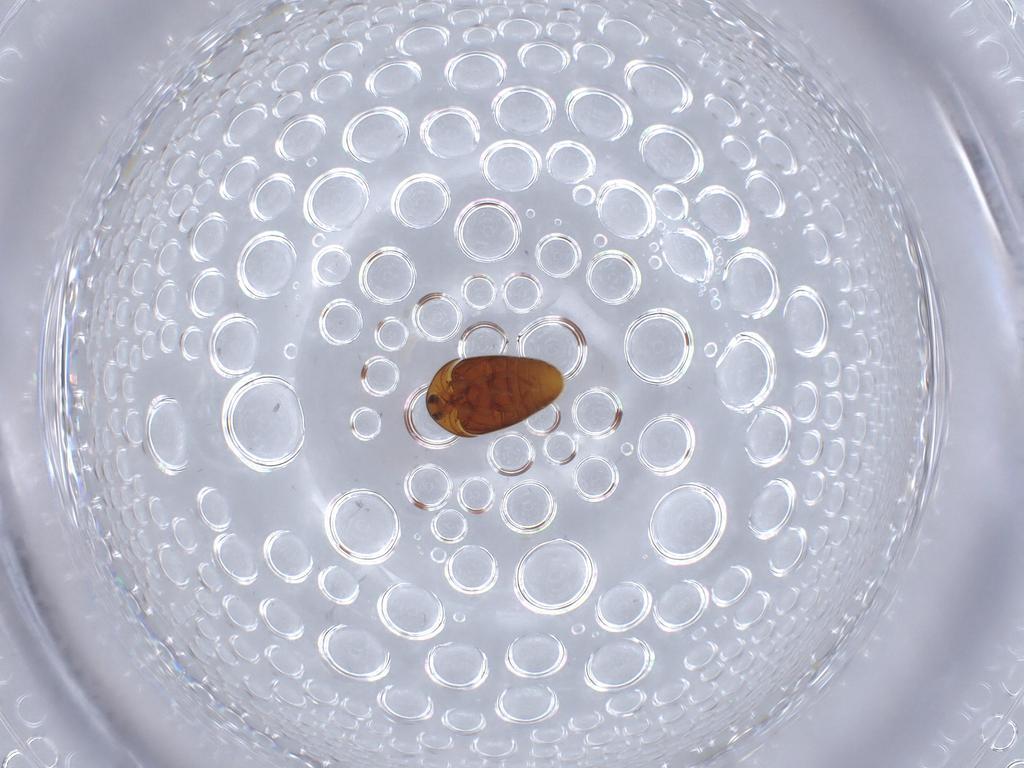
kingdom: Animalia
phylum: Arthropoda
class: Insecta
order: Coleoptera
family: Corylophidae
